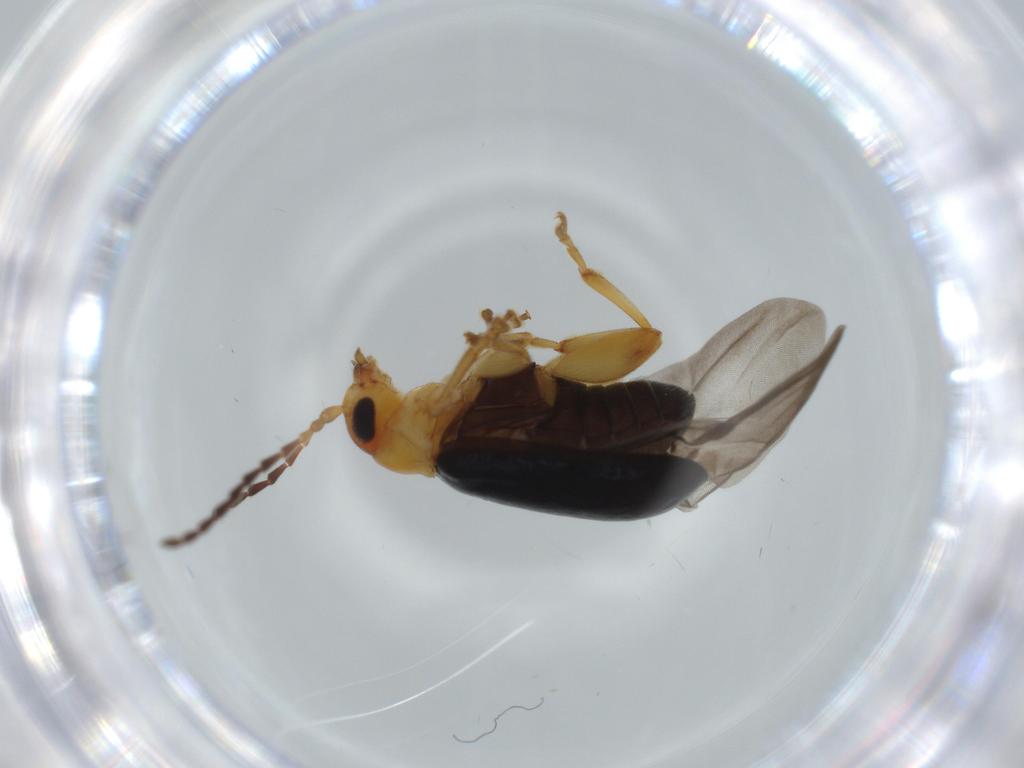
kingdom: Animalia
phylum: Arthropoda
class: Insecta
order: Coleoptera
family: Chrysomelidae
